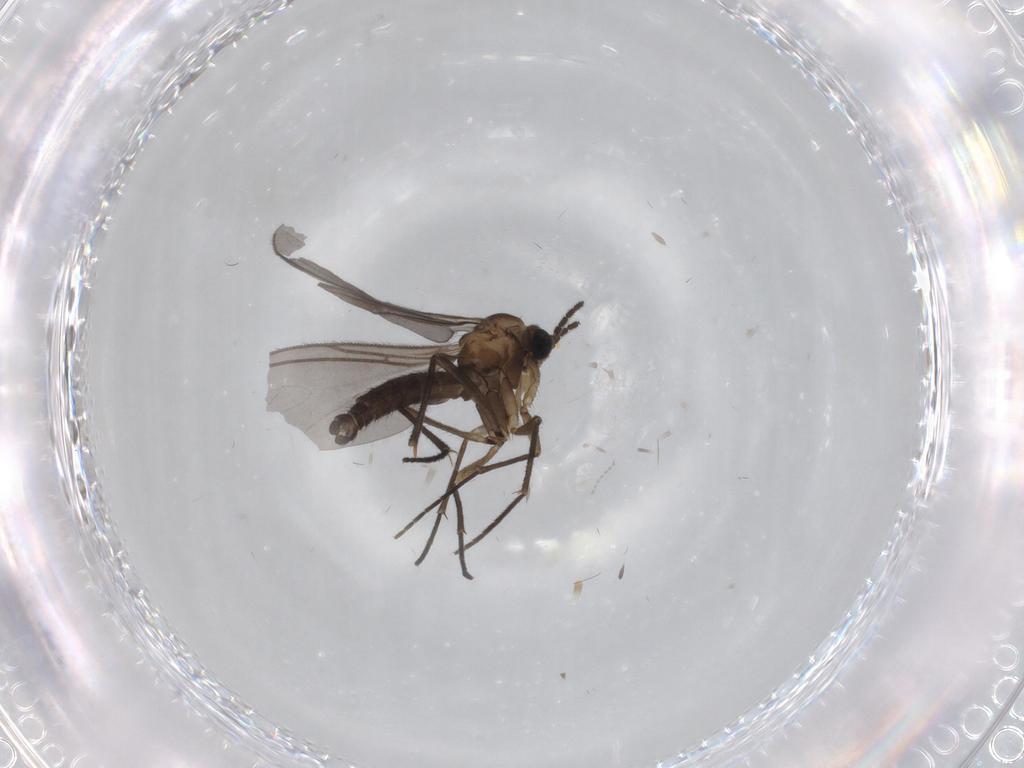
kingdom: Animalia
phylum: Arthropoda
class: Insecta
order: Diptera
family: Sciaridae
